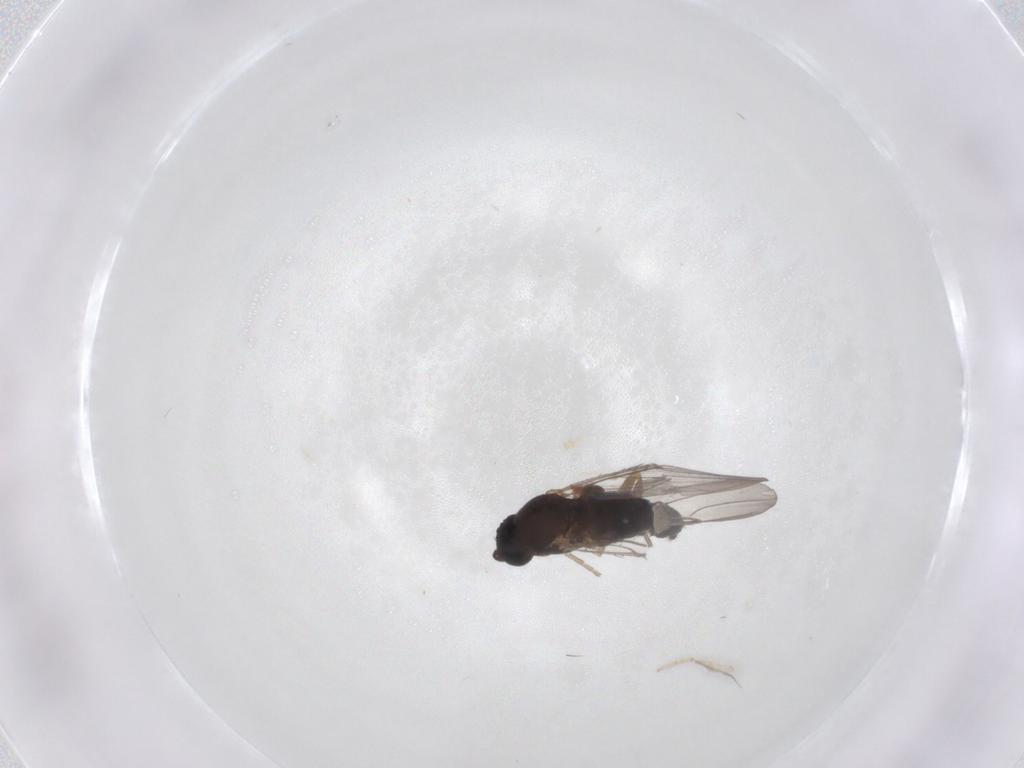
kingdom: Animalia
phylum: Arthropoda
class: Insecta
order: Diptera
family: Phoridae
